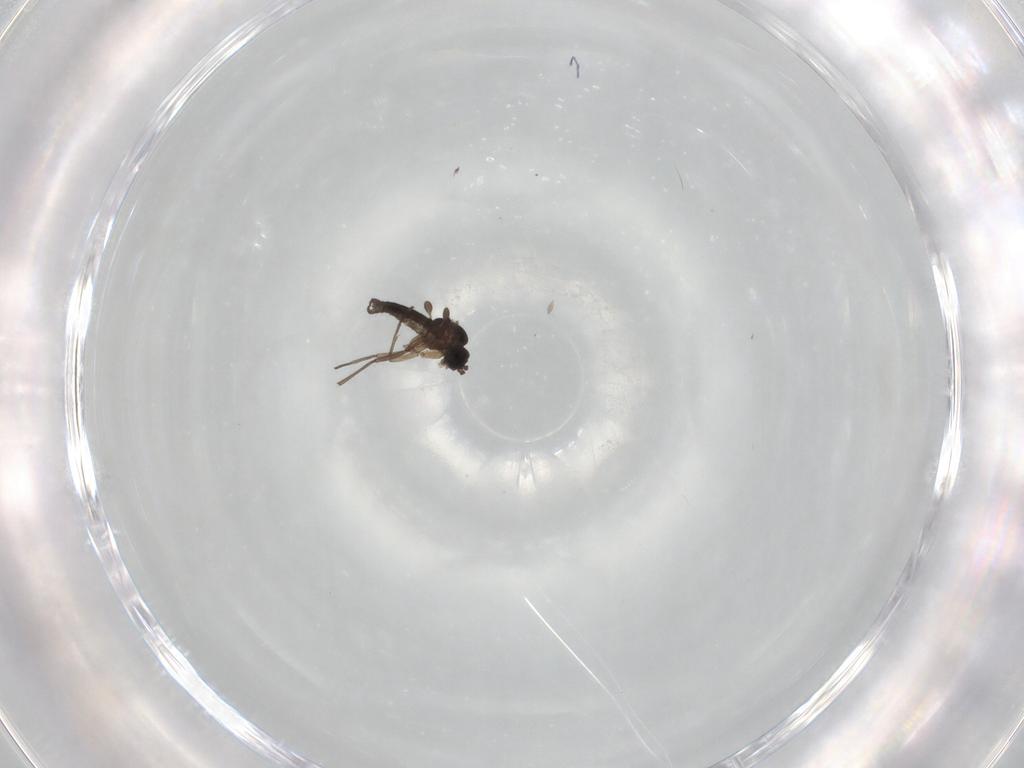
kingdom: Animalia
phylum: Arthropoda
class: Insecta
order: Diptera
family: Sciaridae
